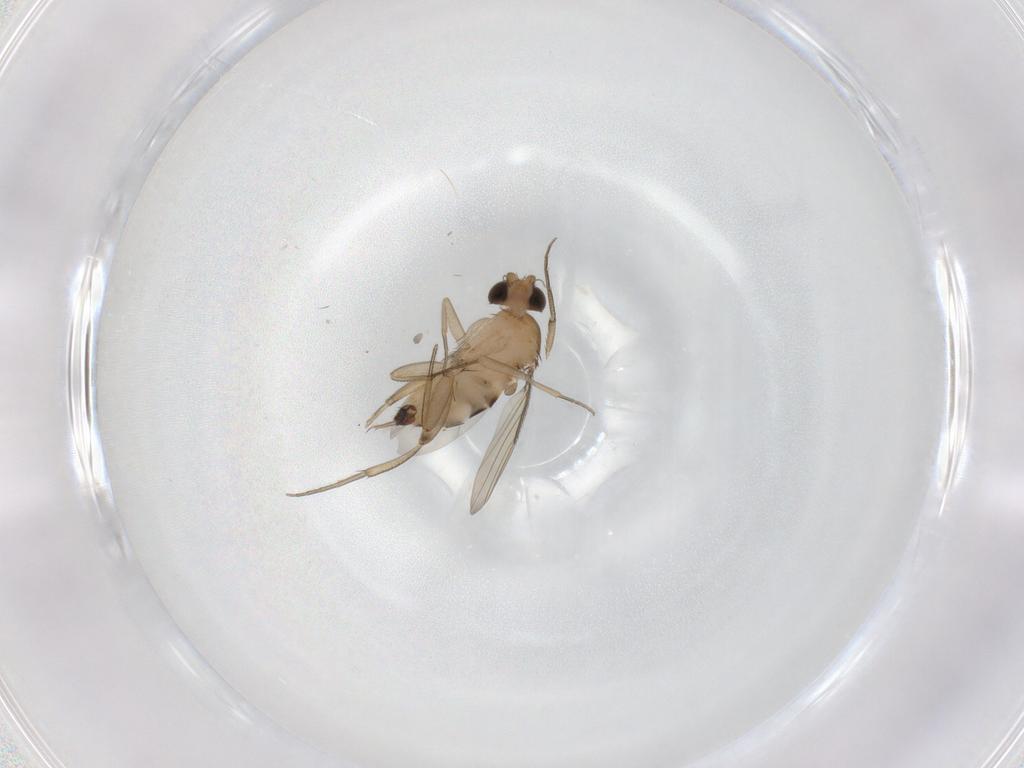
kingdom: Animalia
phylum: Arthropoda
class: Insecta
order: Diptera
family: Phoridae
